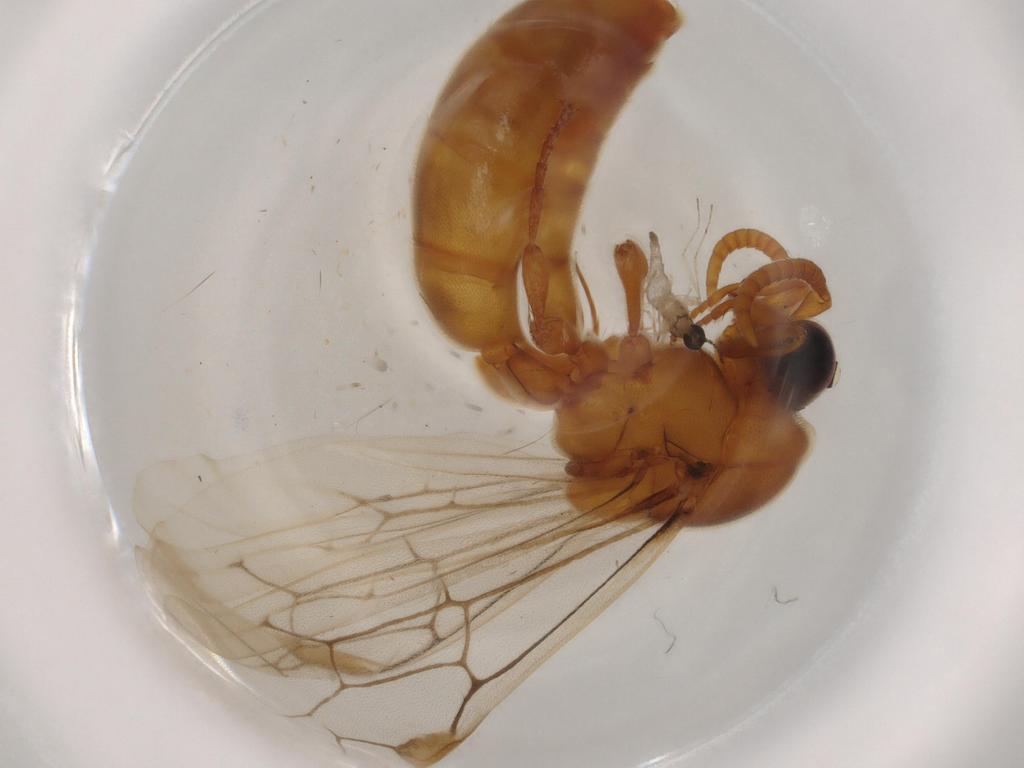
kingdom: Animalia
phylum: Arthropoda
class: Insecta
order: Hymenoptera
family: Formicidae
